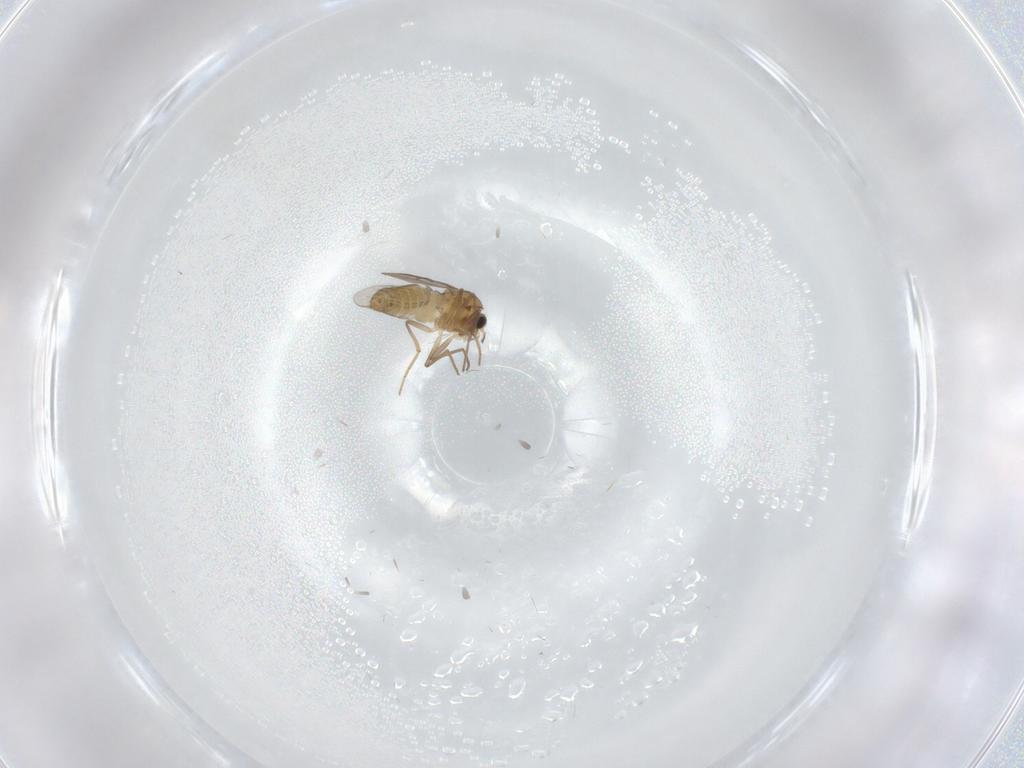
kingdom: Animalia
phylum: Arthropoda
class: Insecta
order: Diptera
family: Chironomidae
